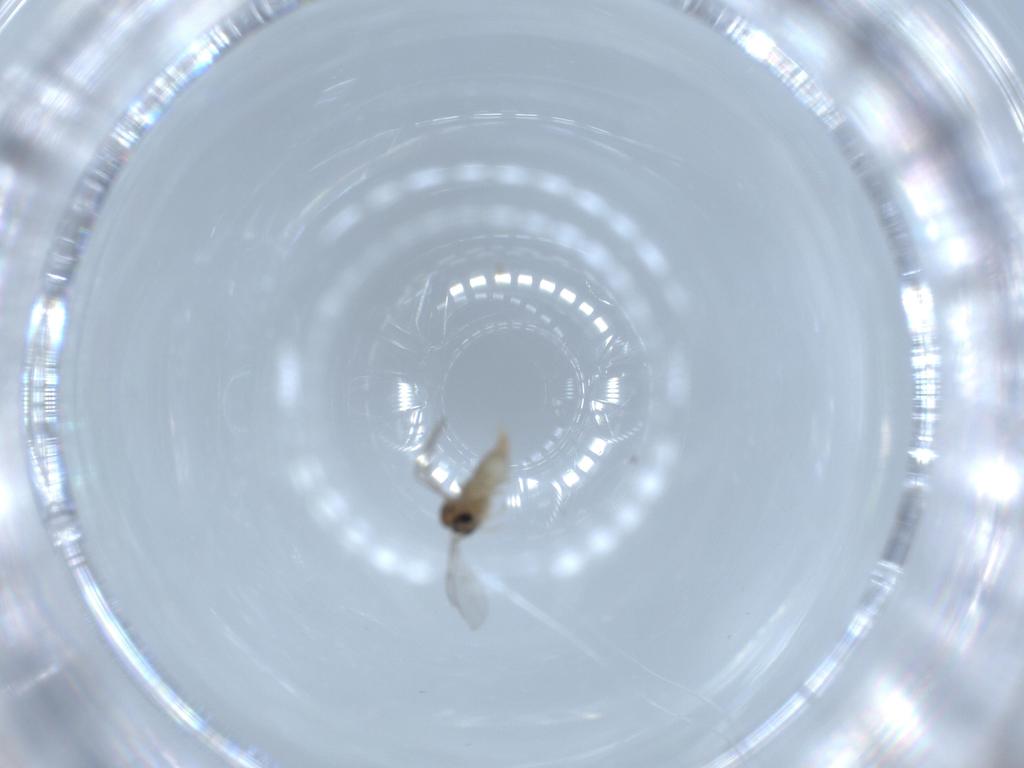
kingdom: Animalia
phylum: Arthropoda
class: Insecta
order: Diptera
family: Cecidomyiidae
